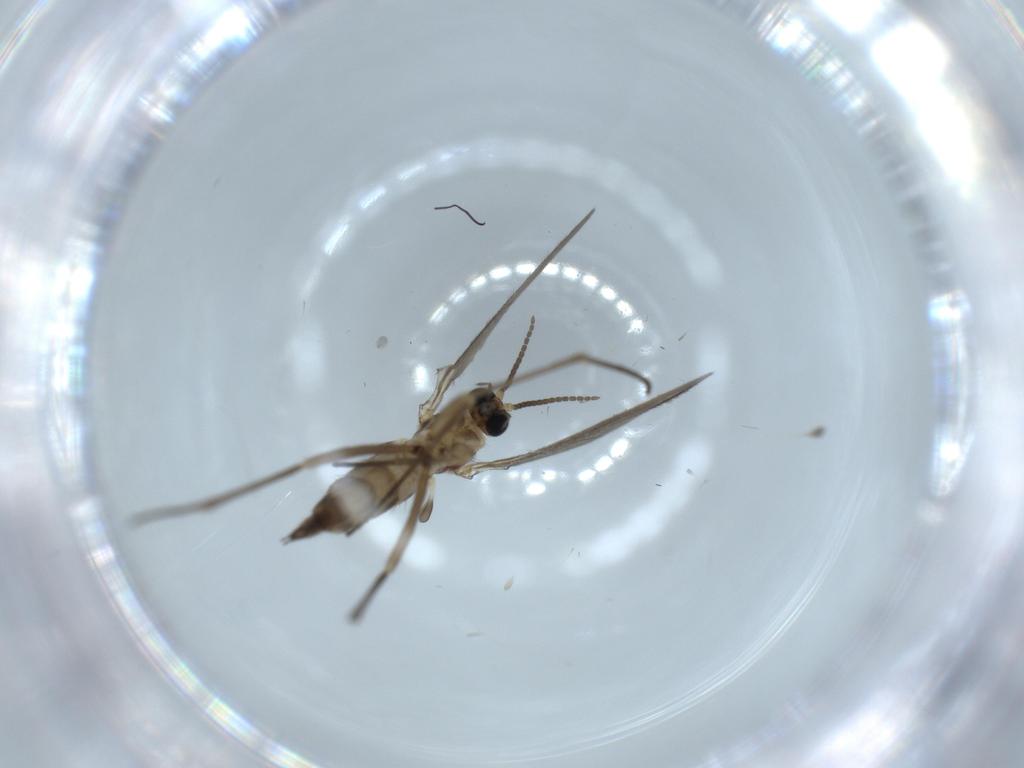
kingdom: Animalia
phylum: Arthropoda
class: Insecta
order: Diptera
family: Sciaridae
